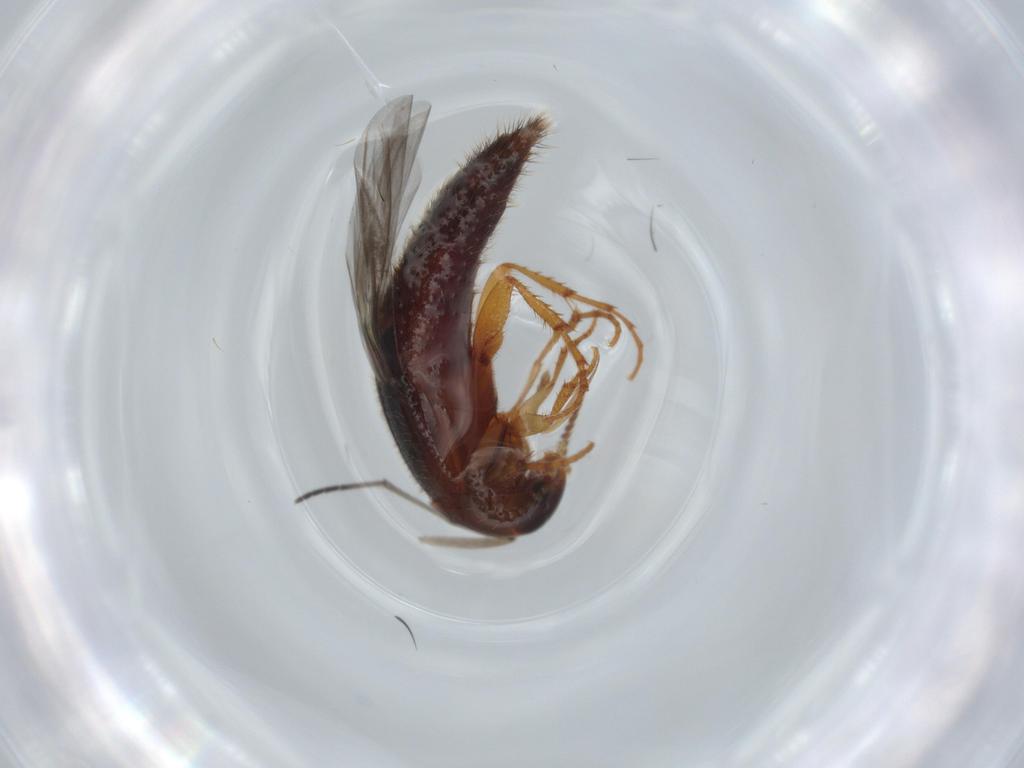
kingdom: Animalia
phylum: Arthropoda
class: Insecta
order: Coleoptera
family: Staphylinidae
